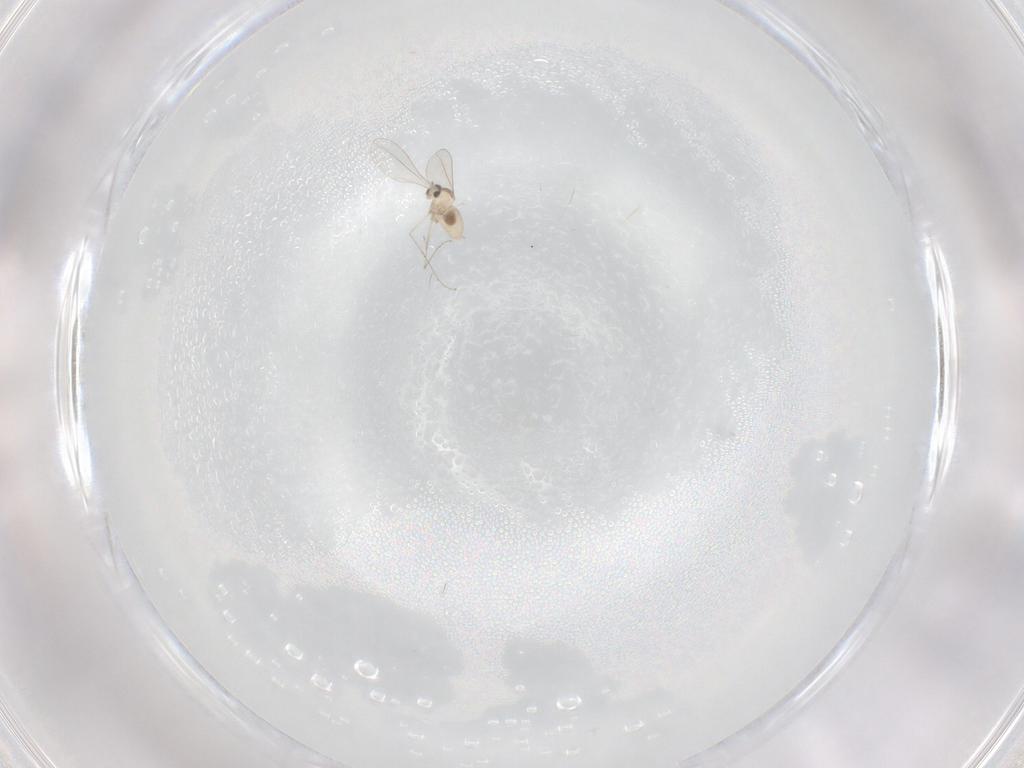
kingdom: Animalia
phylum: Arthropoda
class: Insecta
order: Diptera
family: Cecidomyiidae
